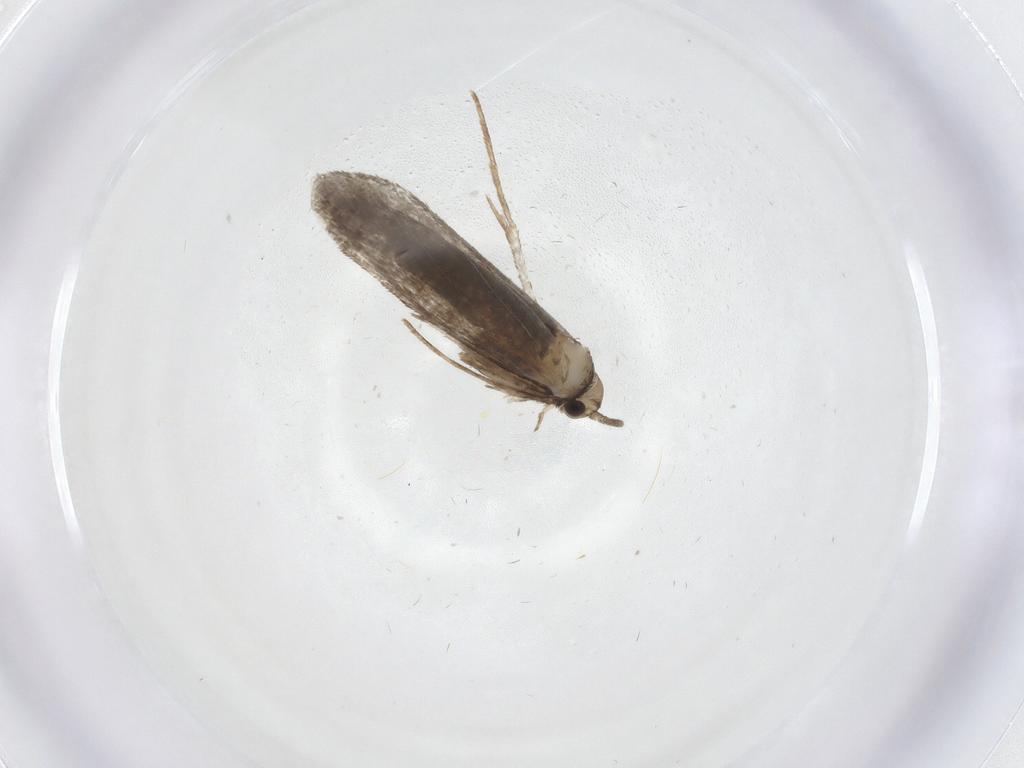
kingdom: Animalia
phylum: Arthropoda
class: Insecta
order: Lepidoptera
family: Nymphalidae
